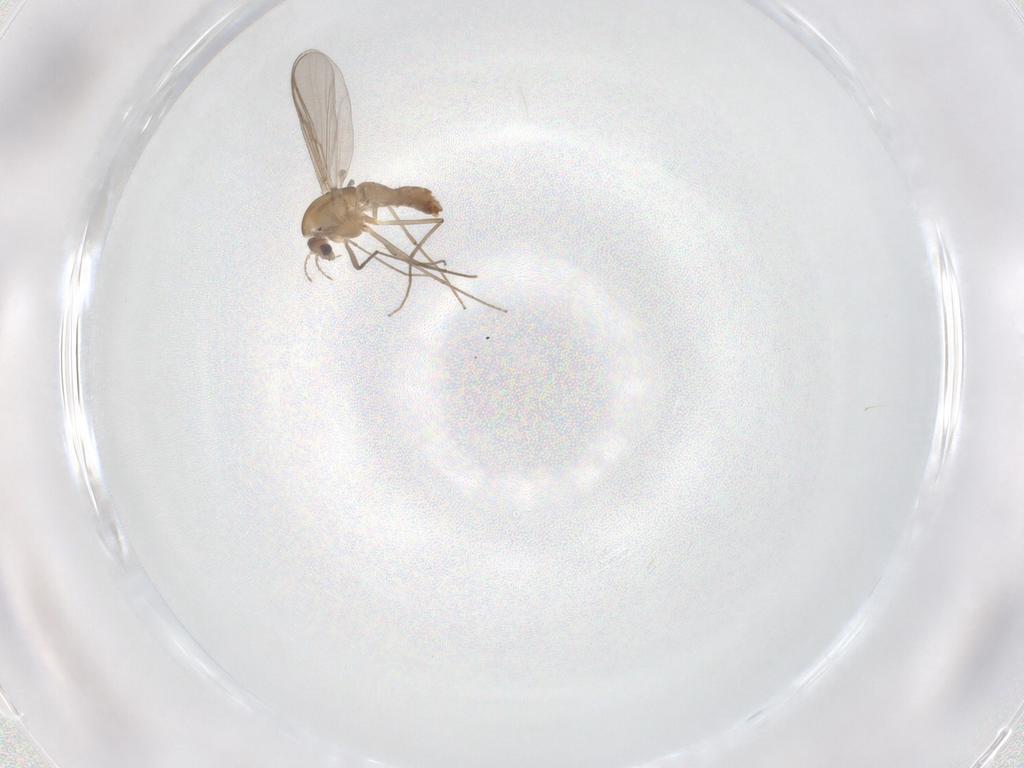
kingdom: Animalia
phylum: Arthropoda
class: Insecta
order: Diptera
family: Chironomidae
